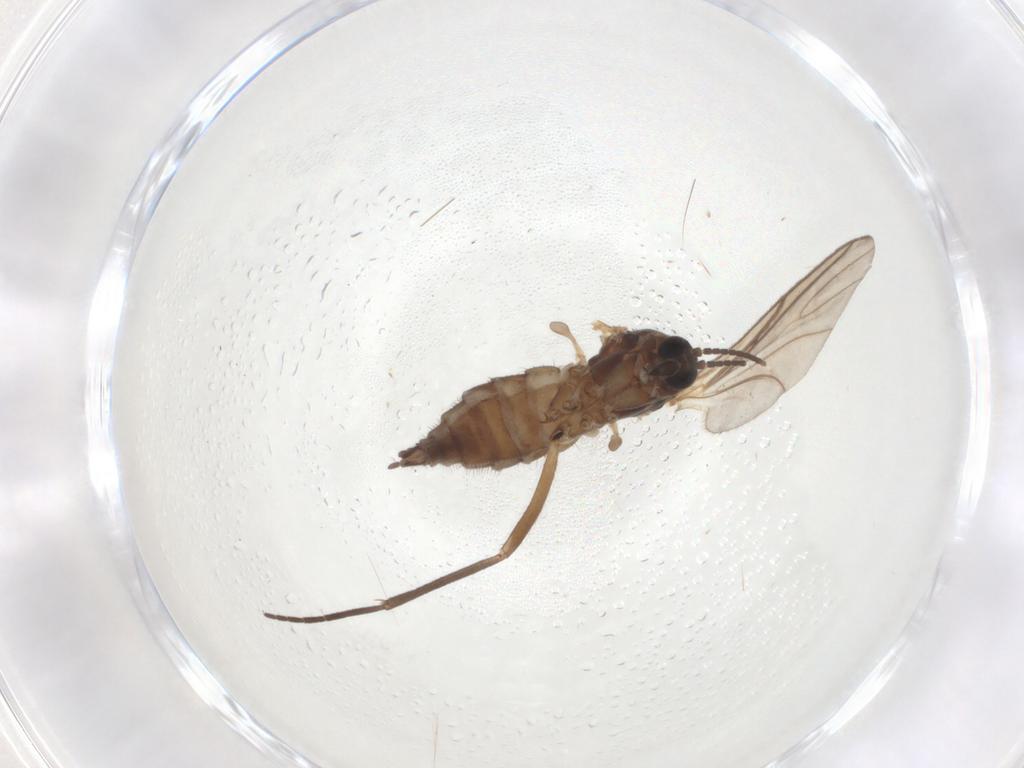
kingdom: Animalia
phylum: Arthropoda
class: Insecta
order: Diptera
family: Sciaridae
